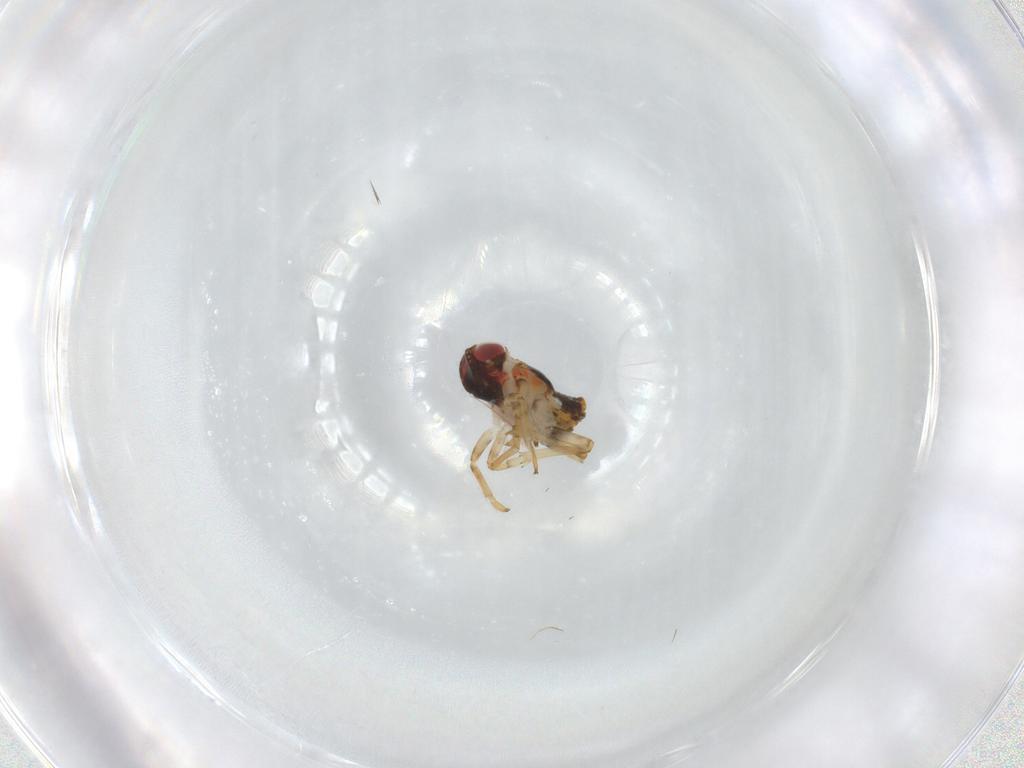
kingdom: Animalia
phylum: Arthropoda
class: Insecta
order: Hemiptera
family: Issidae
